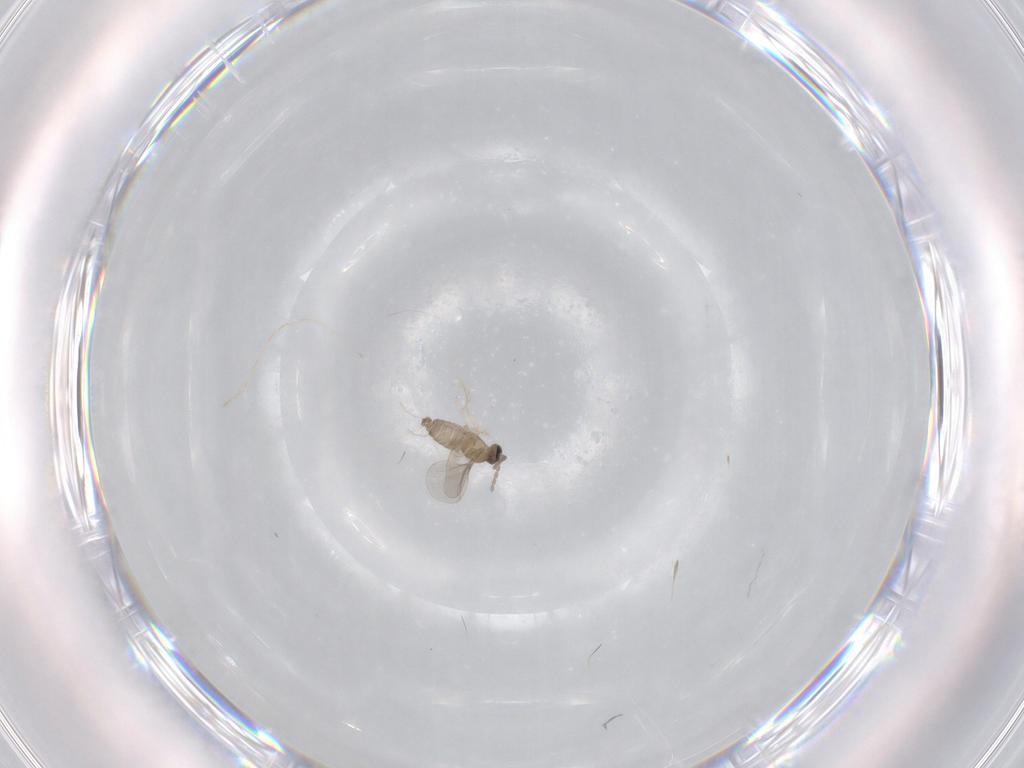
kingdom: Animalia
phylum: Arthropoda
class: Insecta
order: Diptera
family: Cecidomyiidae
